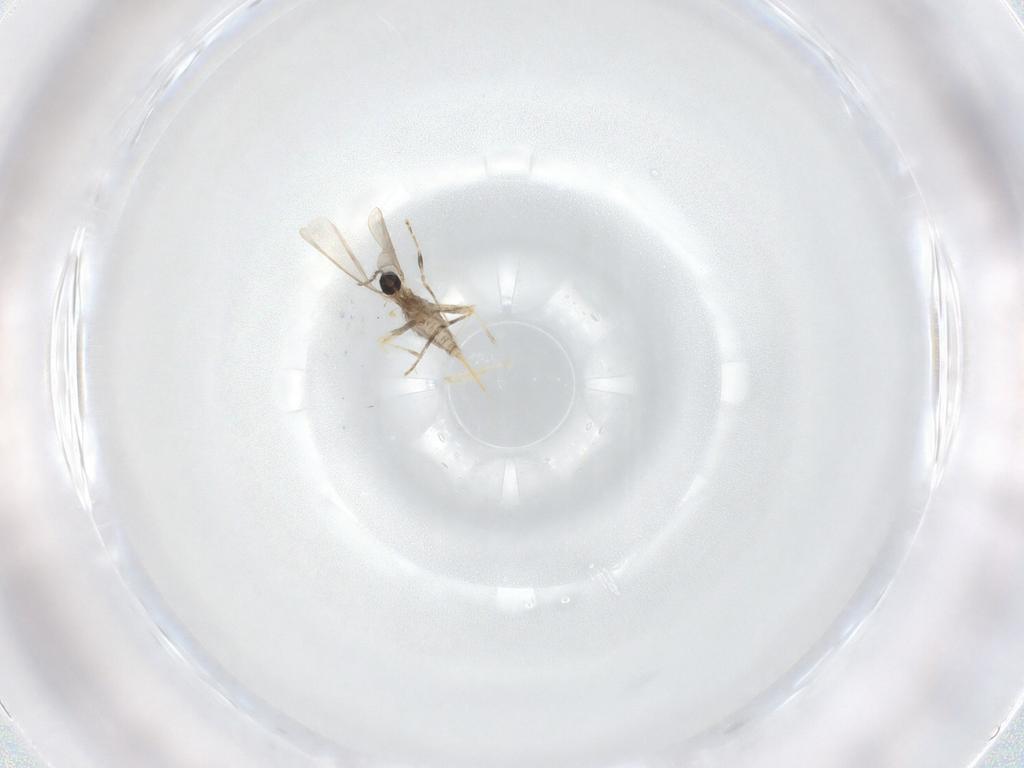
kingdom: Animalia
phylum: Arthropoda
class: Insecta
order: Diptera
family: Cecidomyiidae
